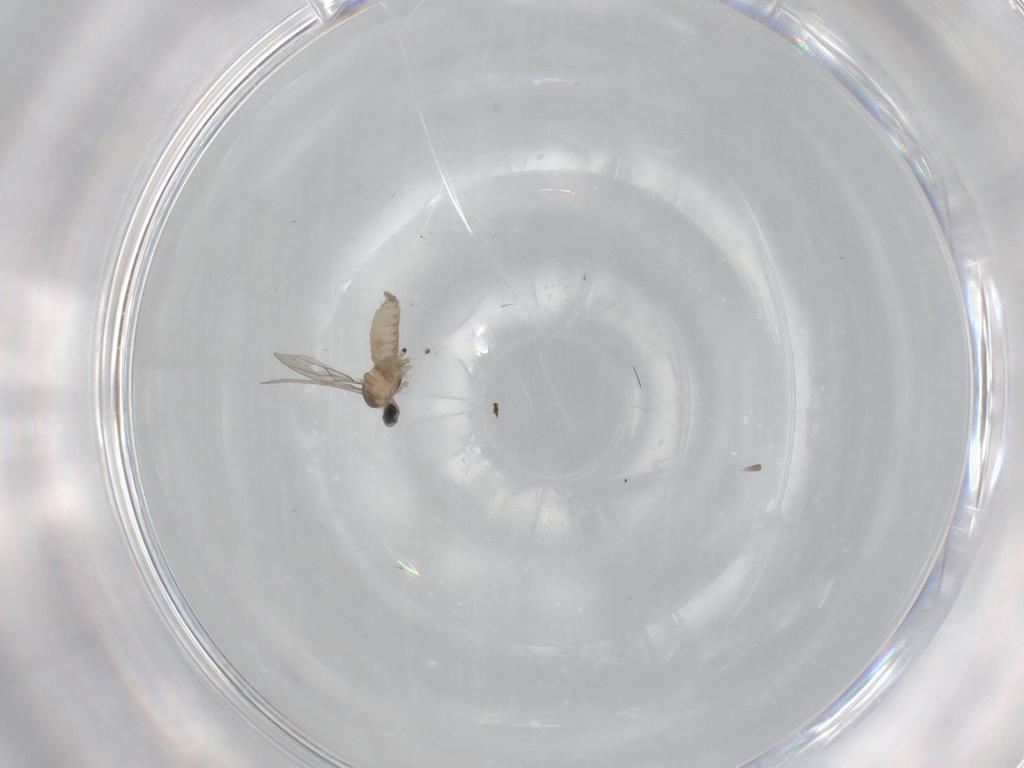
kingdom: Animalia
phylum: Arthropoda
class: Insecta
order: Diptera
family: Cecidomyiidae
